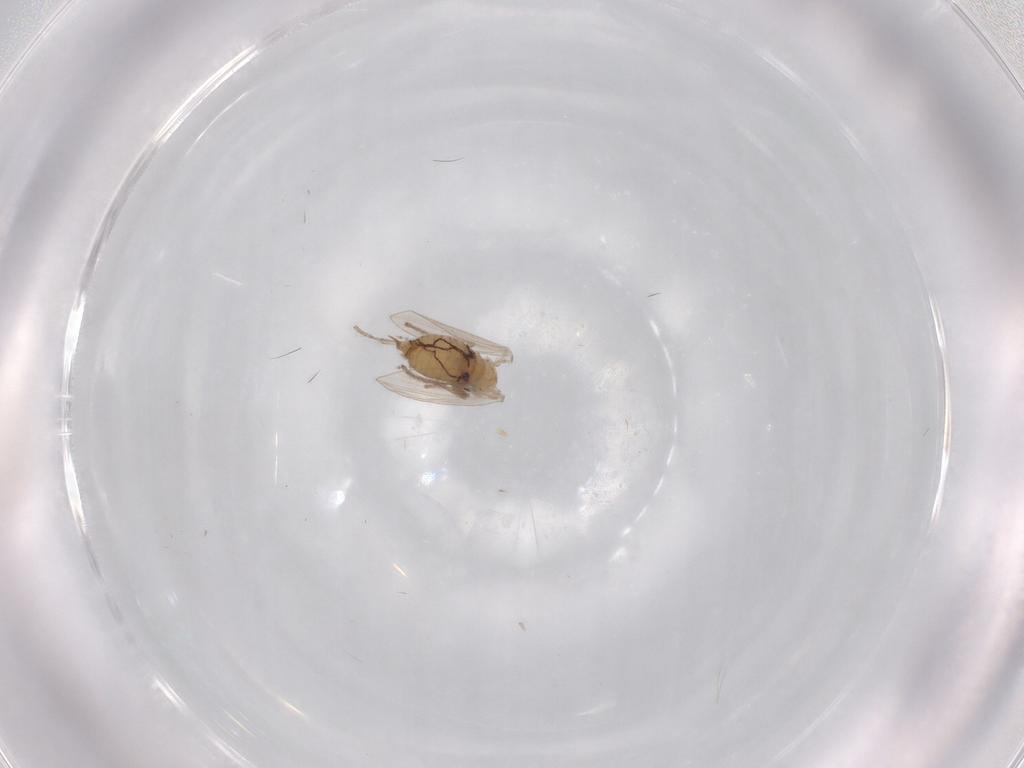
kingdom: Animalia
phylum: Arthropoda
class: Insecta
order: Diptera
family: Psychodidae
